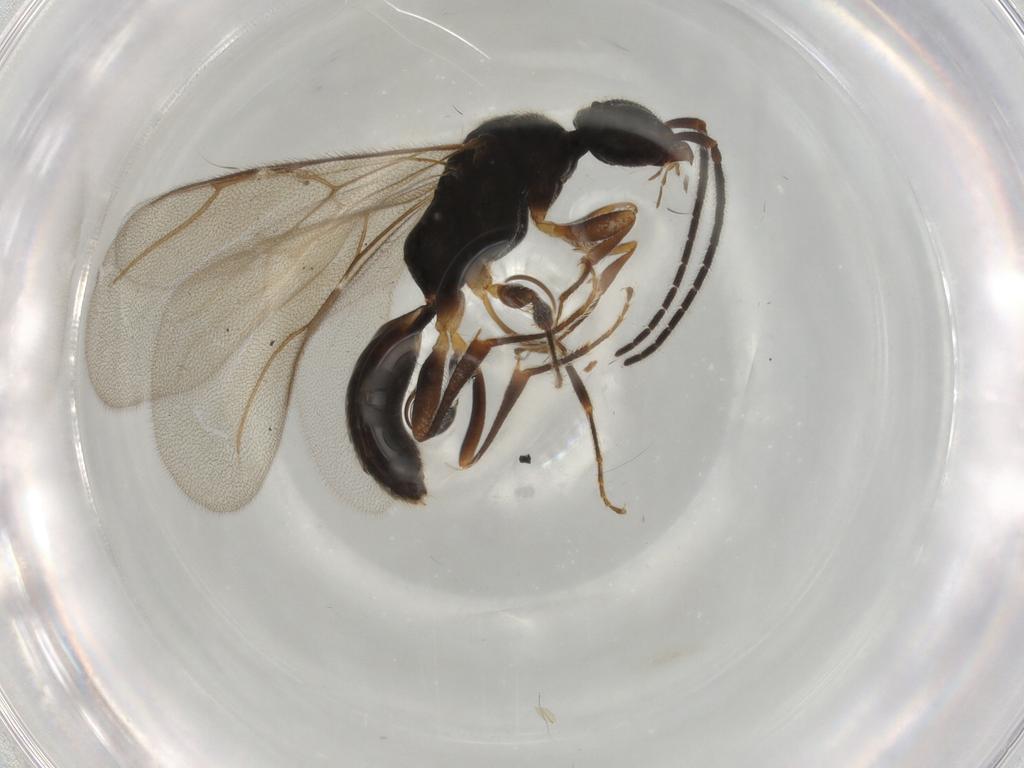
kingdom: Animalia
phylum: Arthropoda
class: Insecta
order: Hymenoptera
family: Bethylidae
